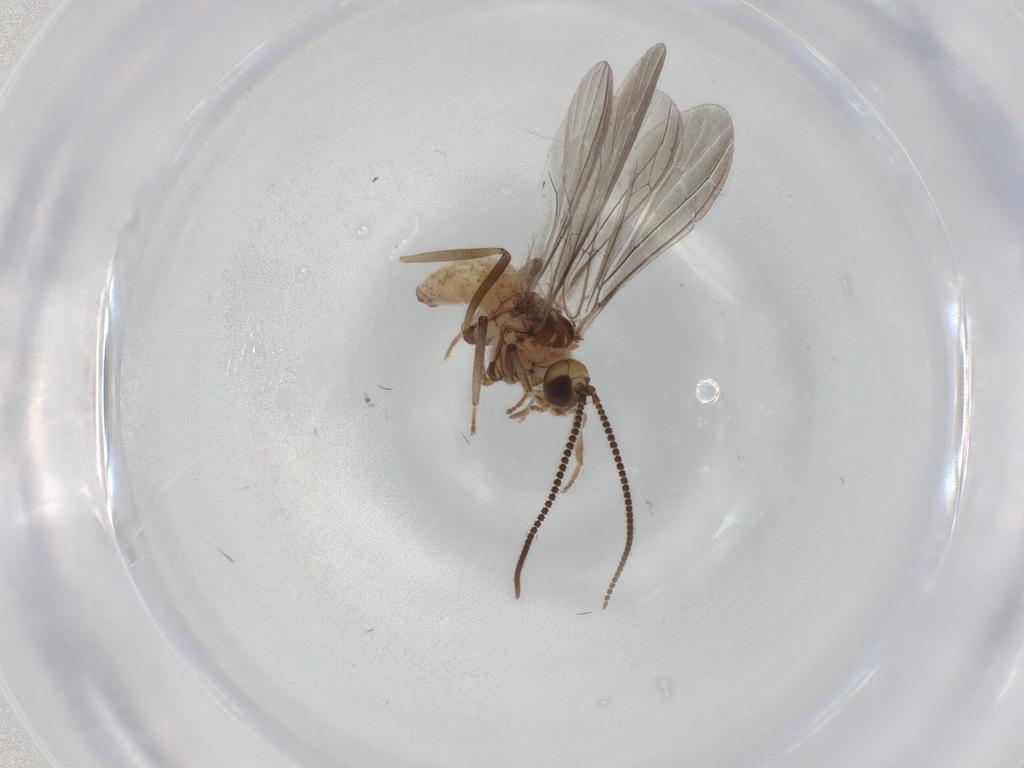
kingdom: Animalia
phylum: Arthropoda
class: Insecta
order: Neuroptera
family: Coniopterygidae
